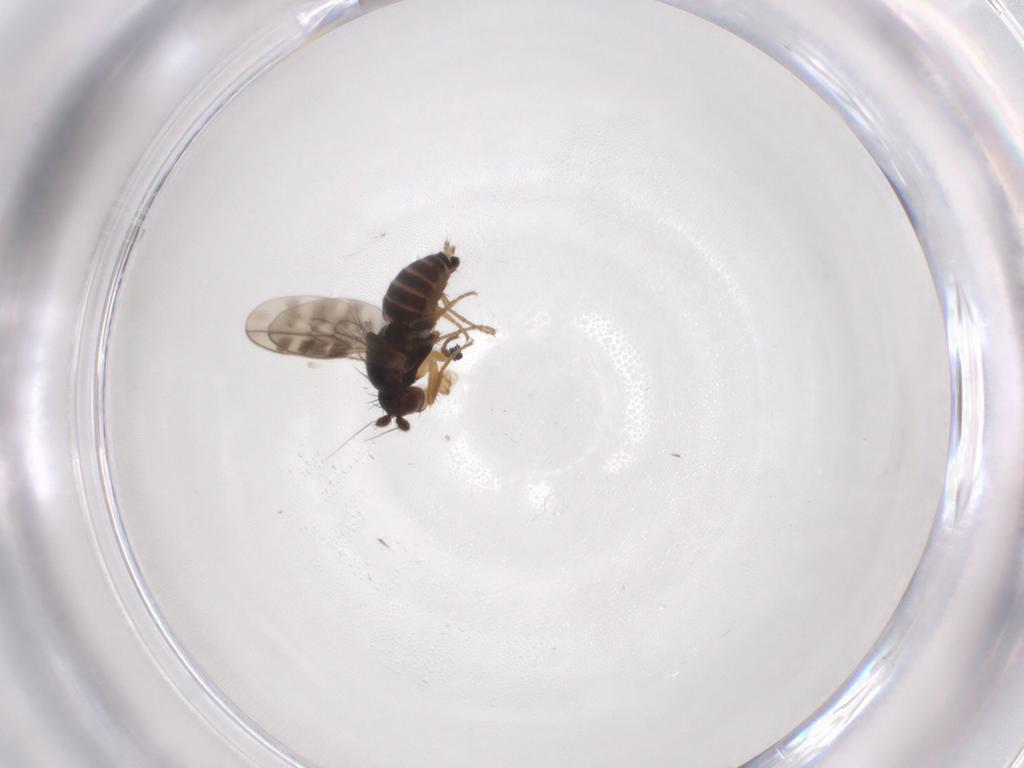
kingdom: Animalia
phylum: Arthropoda
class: Insecta
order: Diptera
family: Sphaeroceridae
